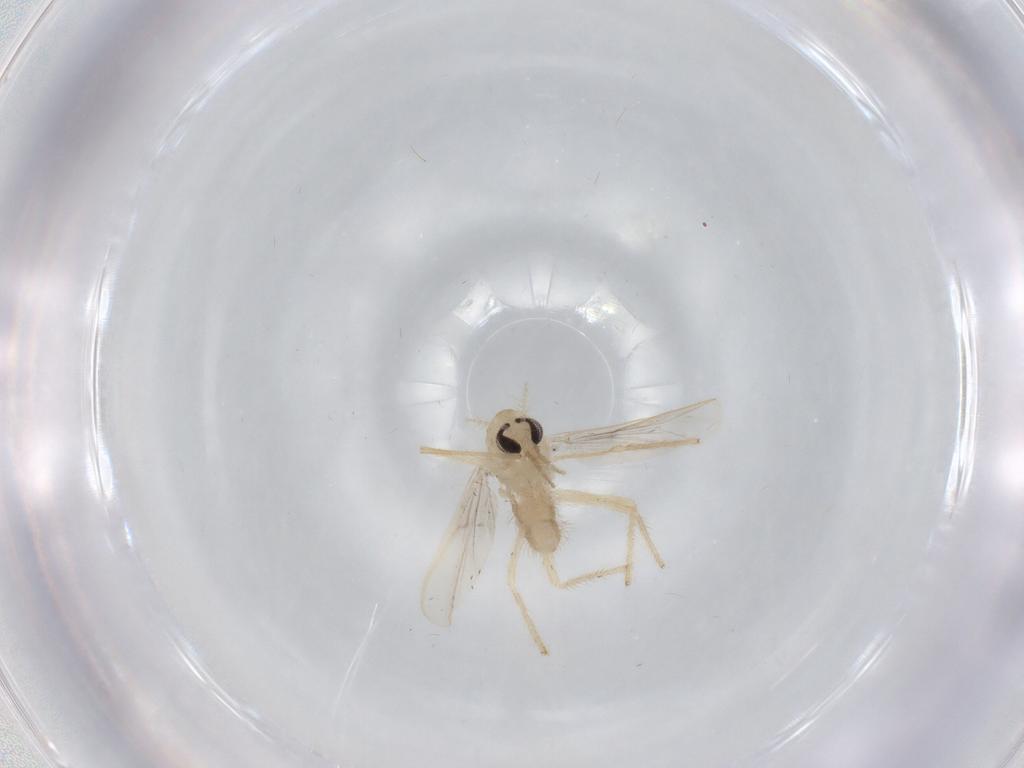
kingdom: Animalia
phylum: Arthropoda
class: Insecta
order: Diptera
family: Chironomidae
